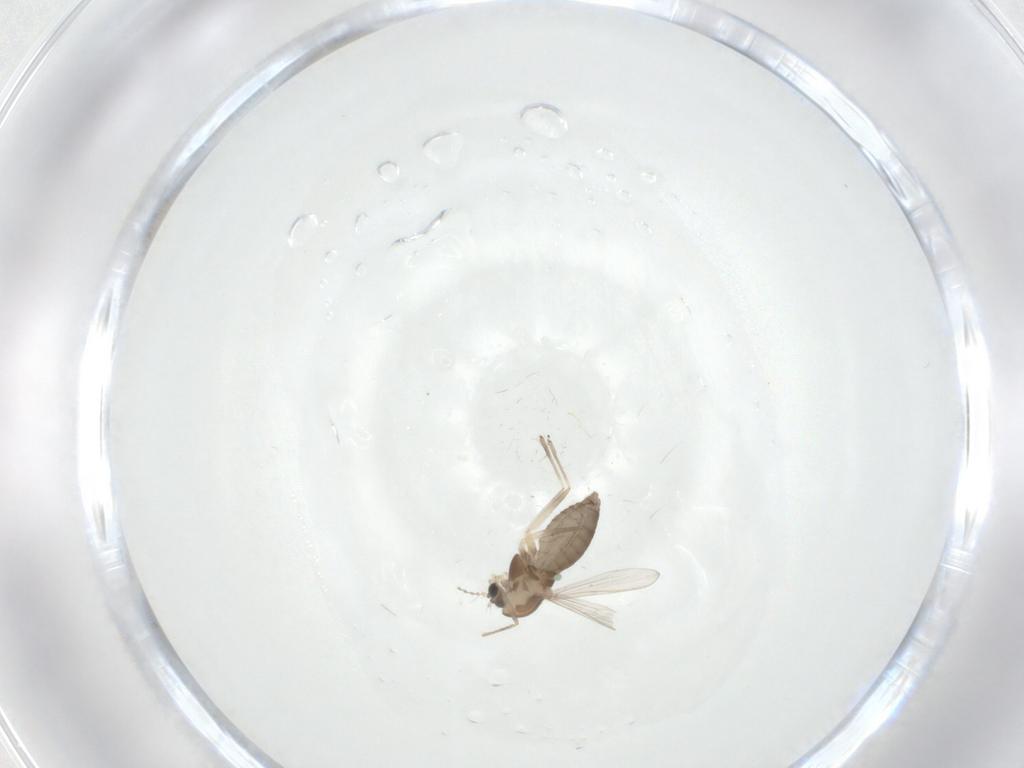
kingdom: Animalia
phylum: Arthropoda
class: Insecta
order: Diptera
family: Chironomidae
